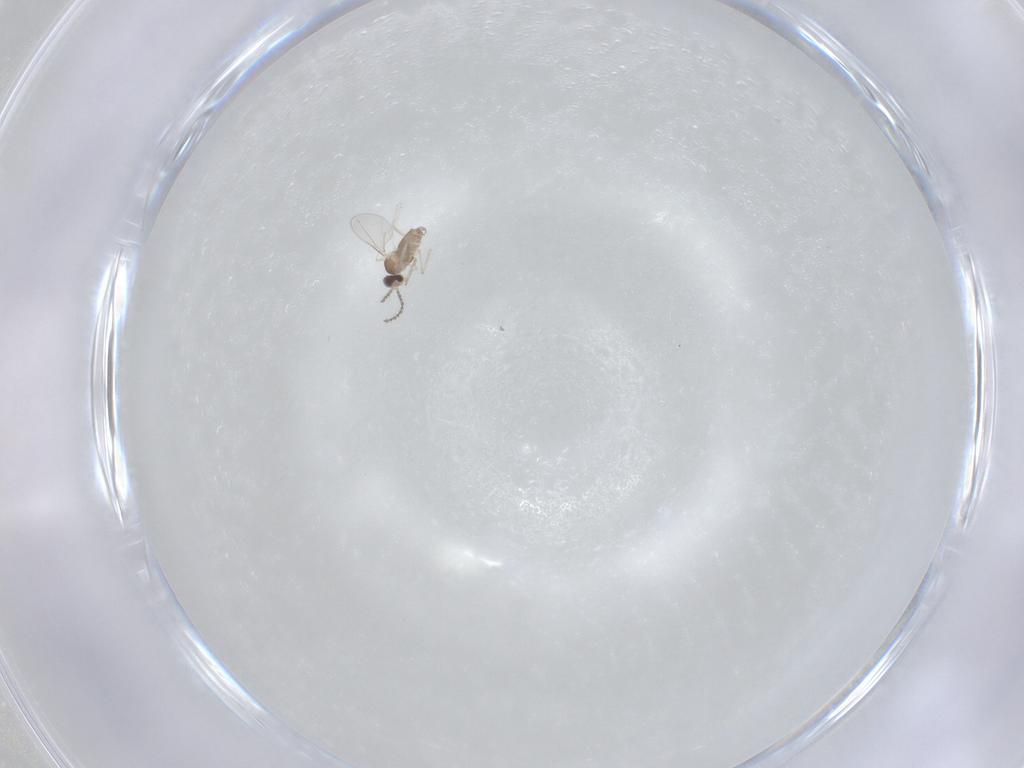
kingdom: Animalia
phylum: Arthropoda
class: Insecta
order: Diptera
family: Cecidomyiidae
